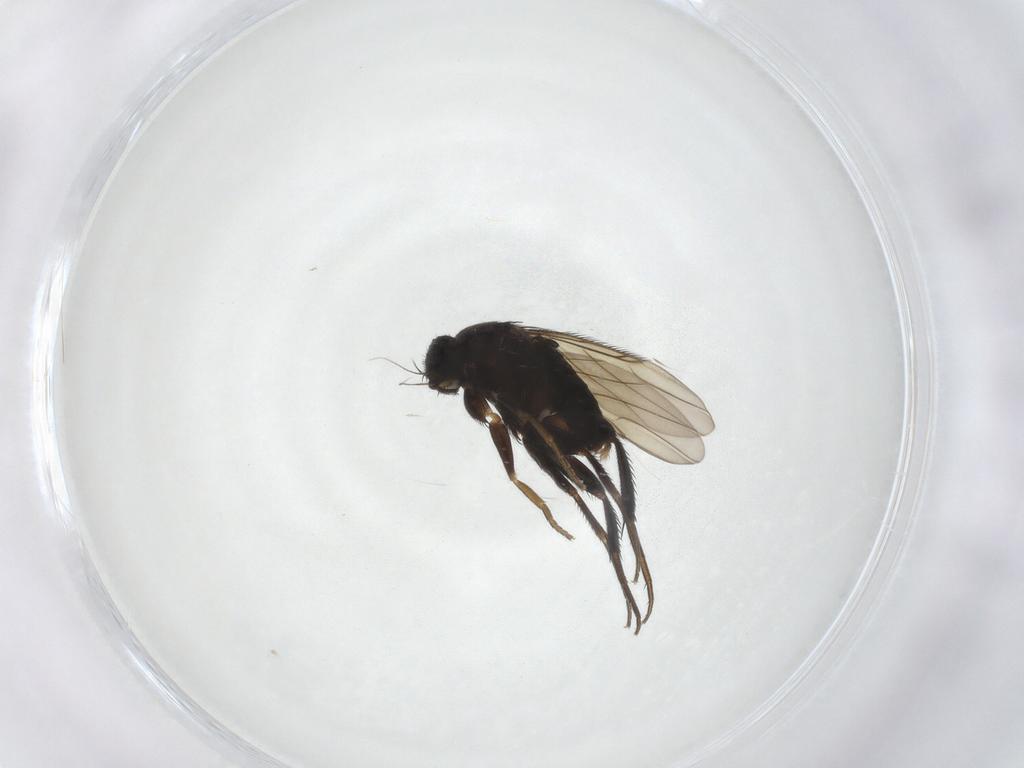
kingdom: Animalia
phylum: Arthropoda
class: Insecta
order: Diptera
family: Phoridae
